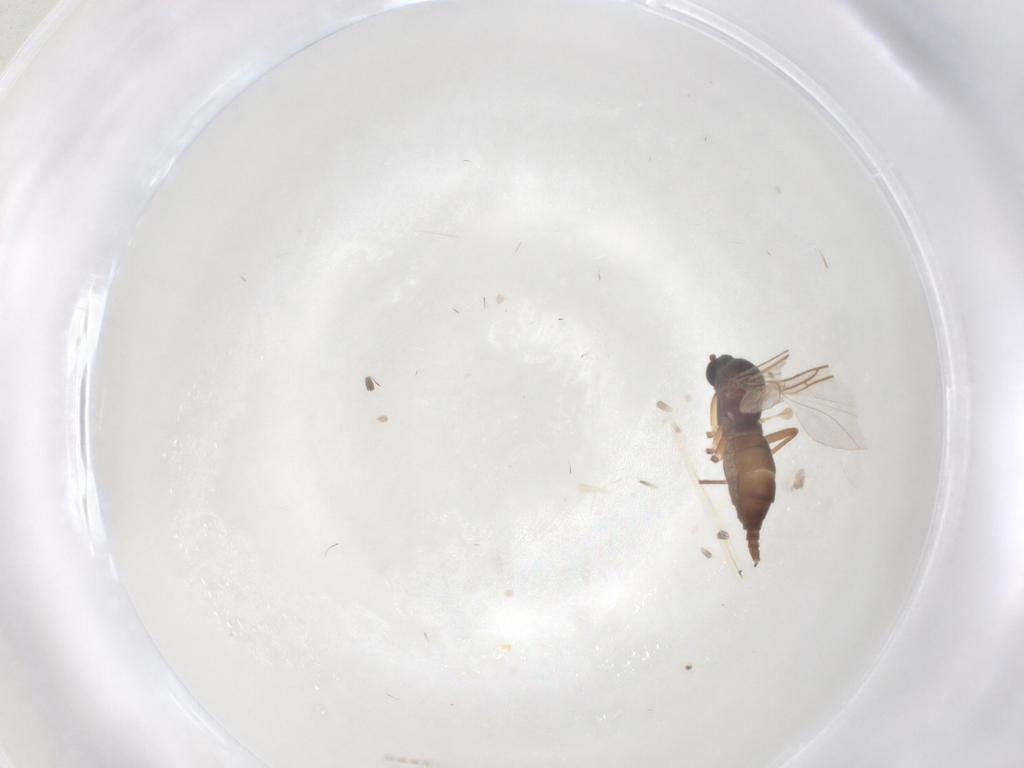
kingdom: Animalia
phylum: Arthropoda
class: Insecta
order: Diptera
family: Sciaridae
